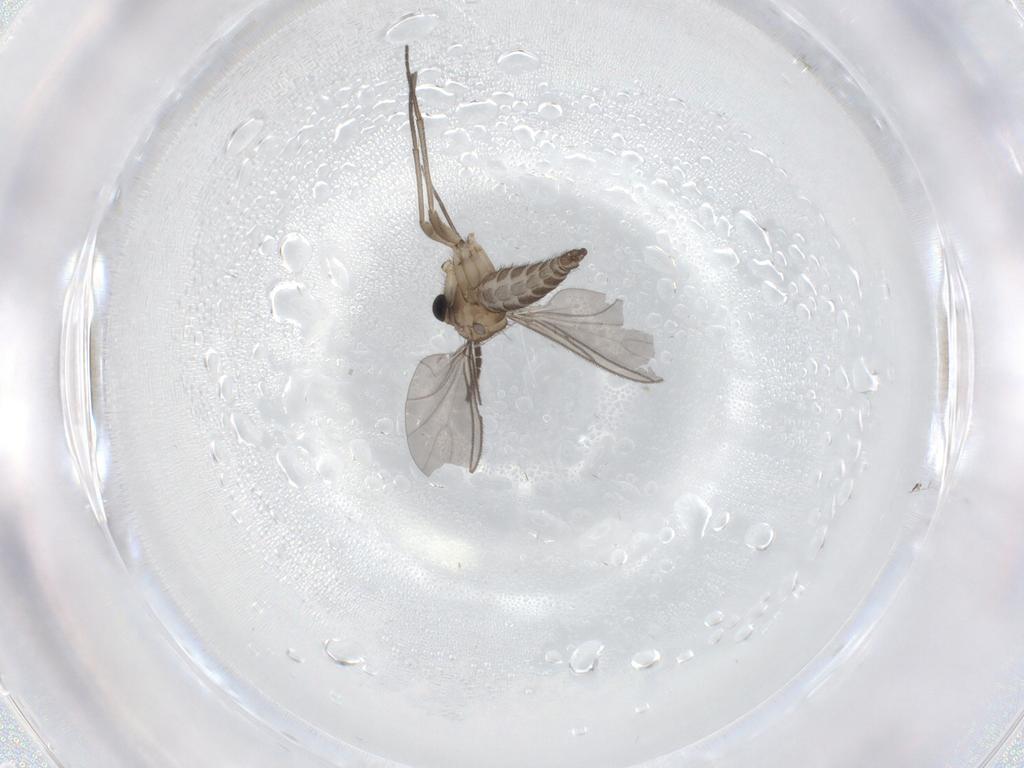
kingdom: Animalia
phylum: Arthropoda
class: Insecta
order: Diptera
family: Sciaridae
